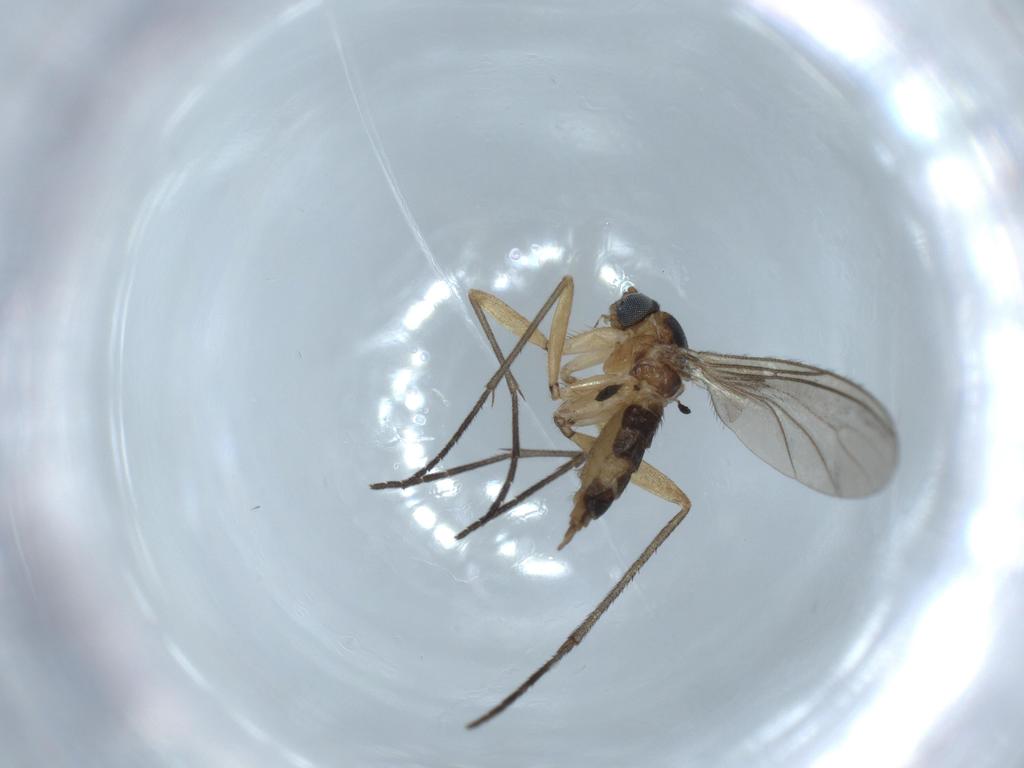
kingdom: Animalia
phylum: Arthropoda
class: Insecta
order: Diptera
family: Sciaridae
